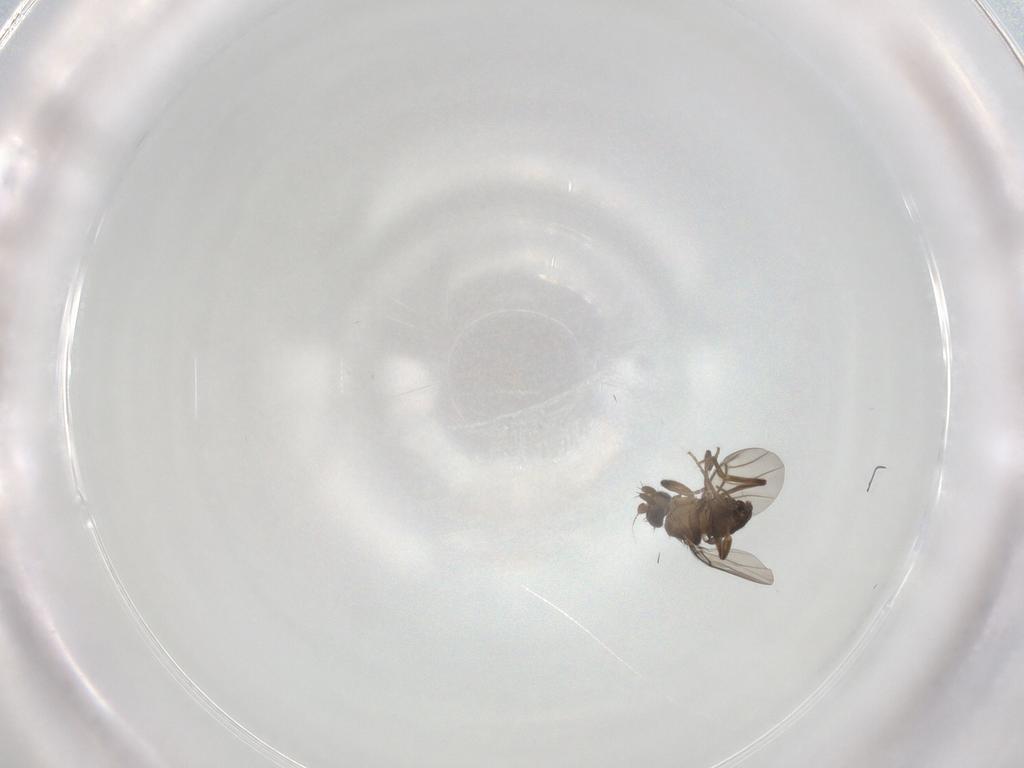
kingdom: Animalia
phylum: Arthropoda
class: Insecta
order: Diptera
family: Phoridae
